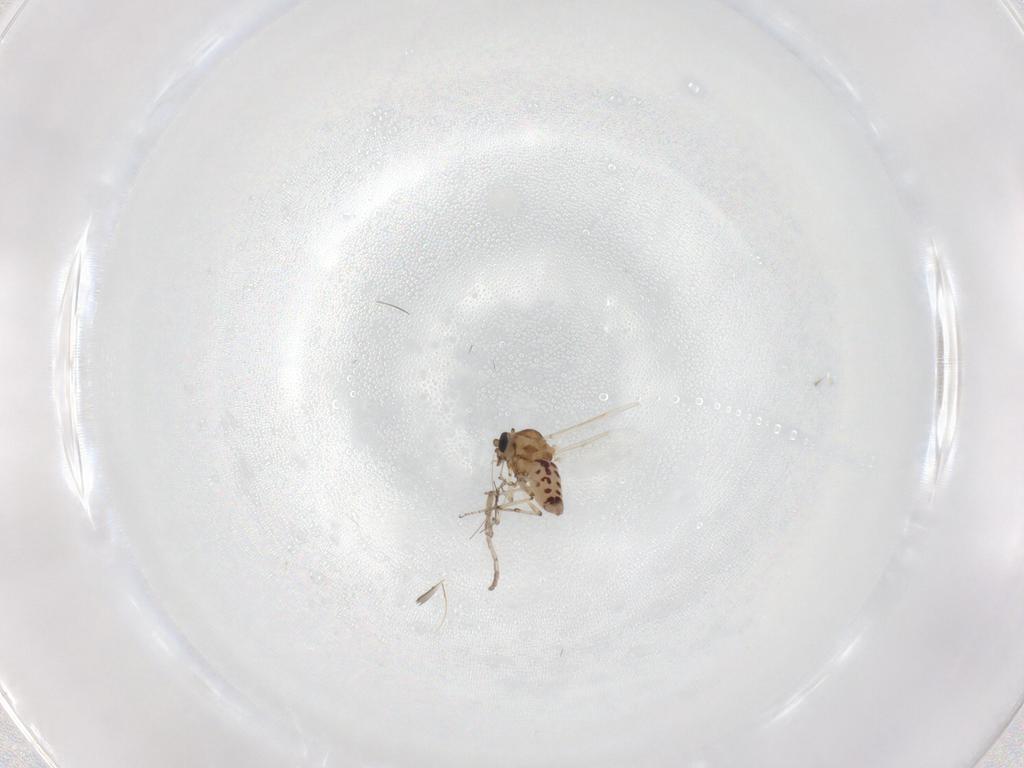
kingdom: Animalia
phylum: Arthropoda
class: Insecta
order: Diptera
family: Ceratopogonidae
